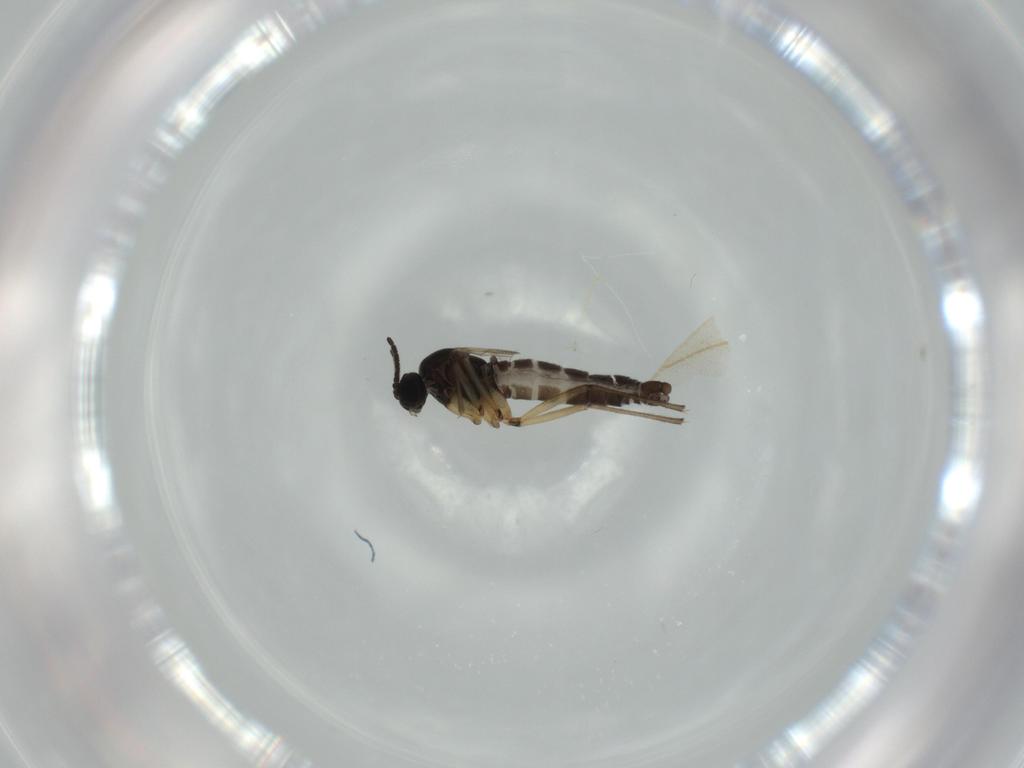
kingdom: Animalia
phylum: Arthropoda
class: Insecta
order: Diptera
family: Sciaridae
